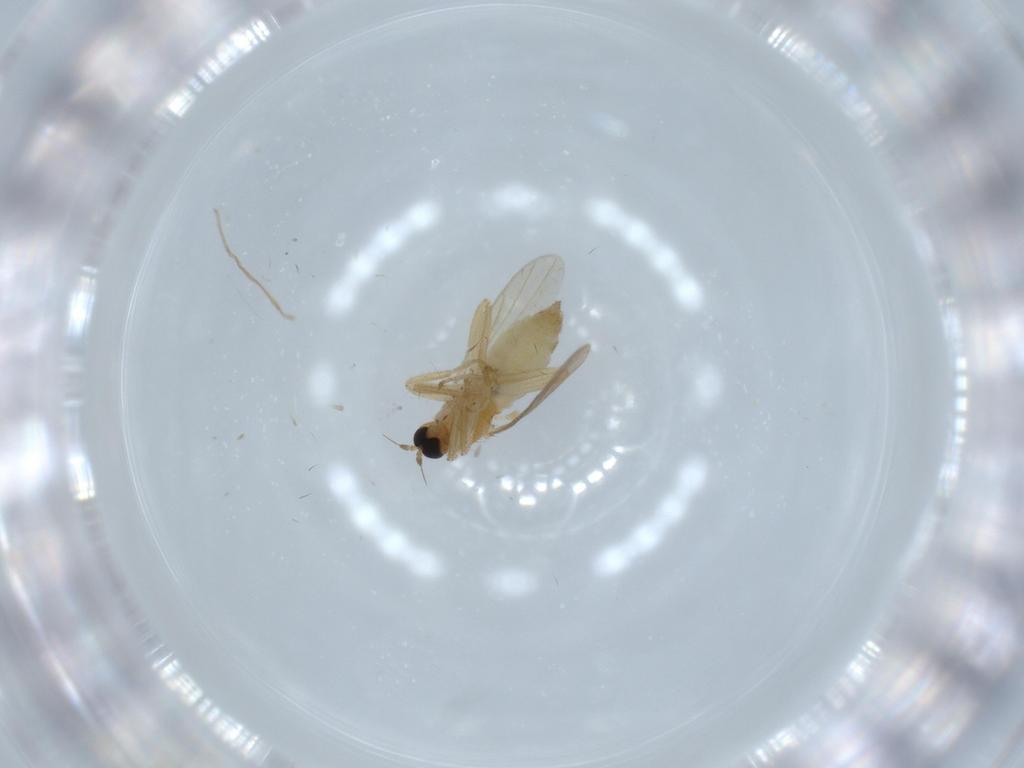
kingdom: Animalia
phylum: Arthropoda
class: Insecta
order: Diptera
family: Hybotidae
